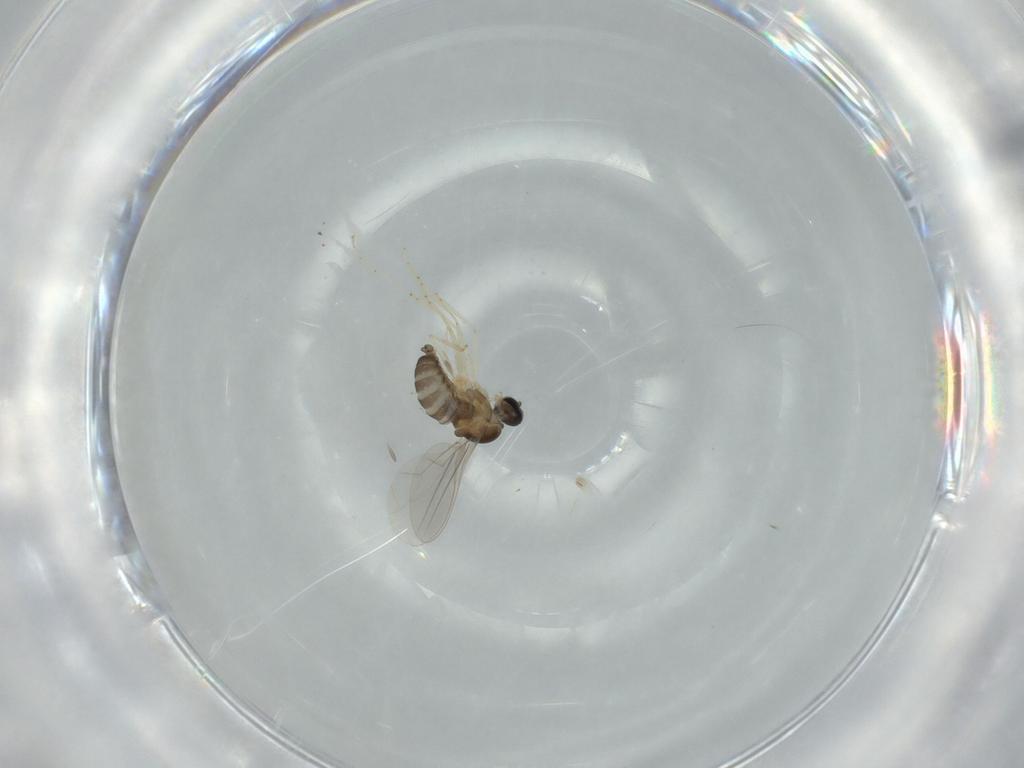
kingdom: Animalia
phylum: Arthropoda
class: Insecta
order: Diptera
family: Cecidomyiidae
